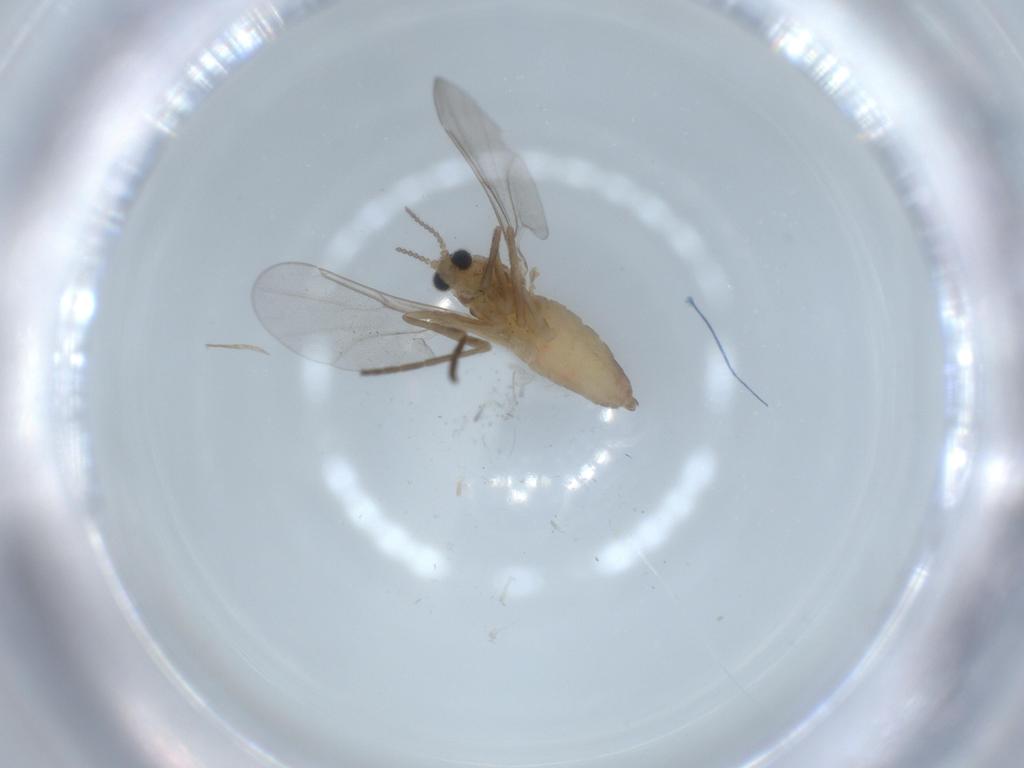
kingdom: Animalia
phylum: Arthropoda
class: Insecta
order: Diptera
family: Cecidomyiidae
